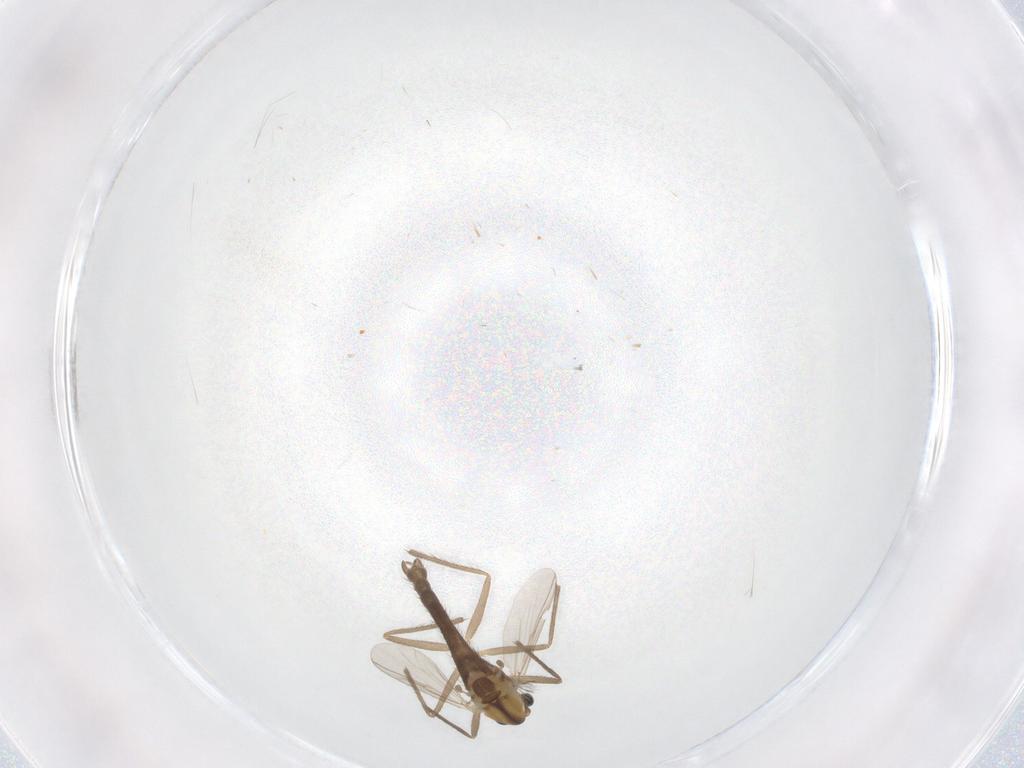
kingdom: Animalia
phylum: Arthropoda
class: Insecta
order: Diptera
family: Chironomidae
